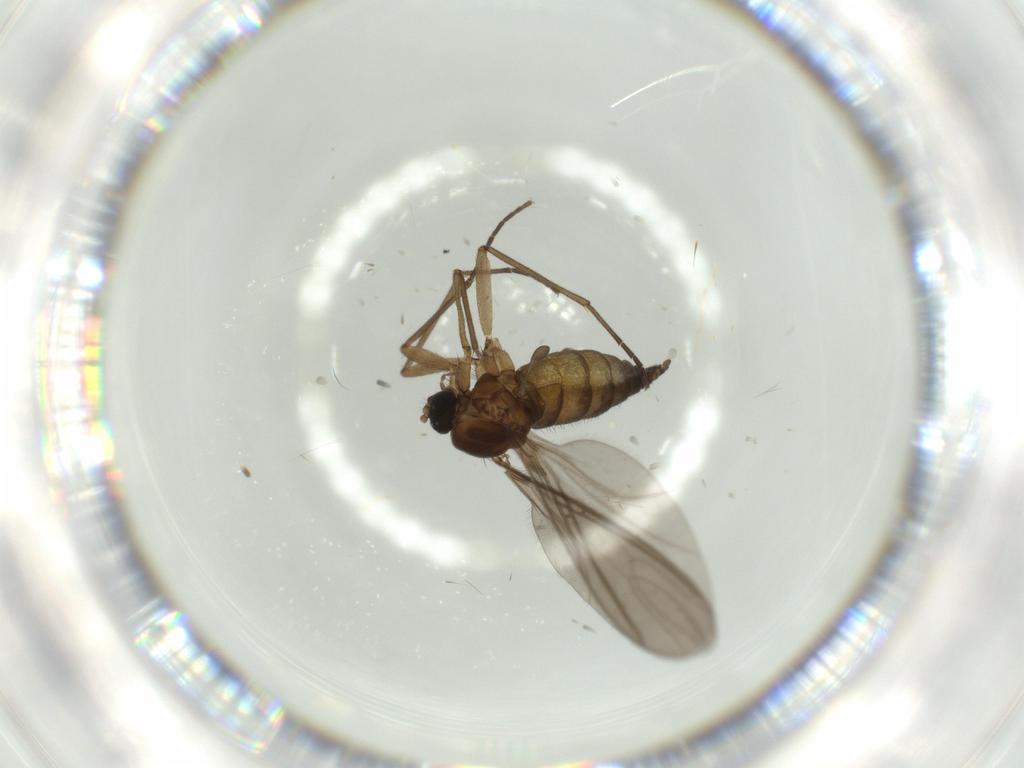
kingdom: Animalia
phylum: Arthropoda
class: Insecta
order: Diptera
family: Sciaridae
